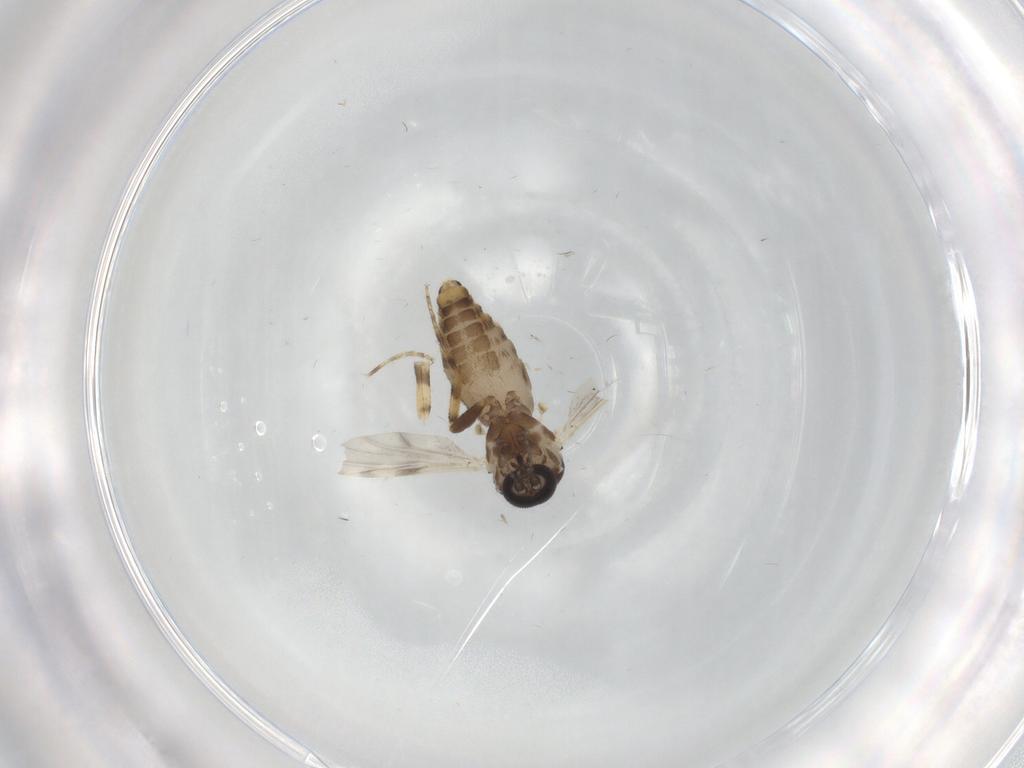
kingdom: Animalia
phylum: Arthropoda
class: Insecta
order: Diptera
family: Ceratopogonidae
